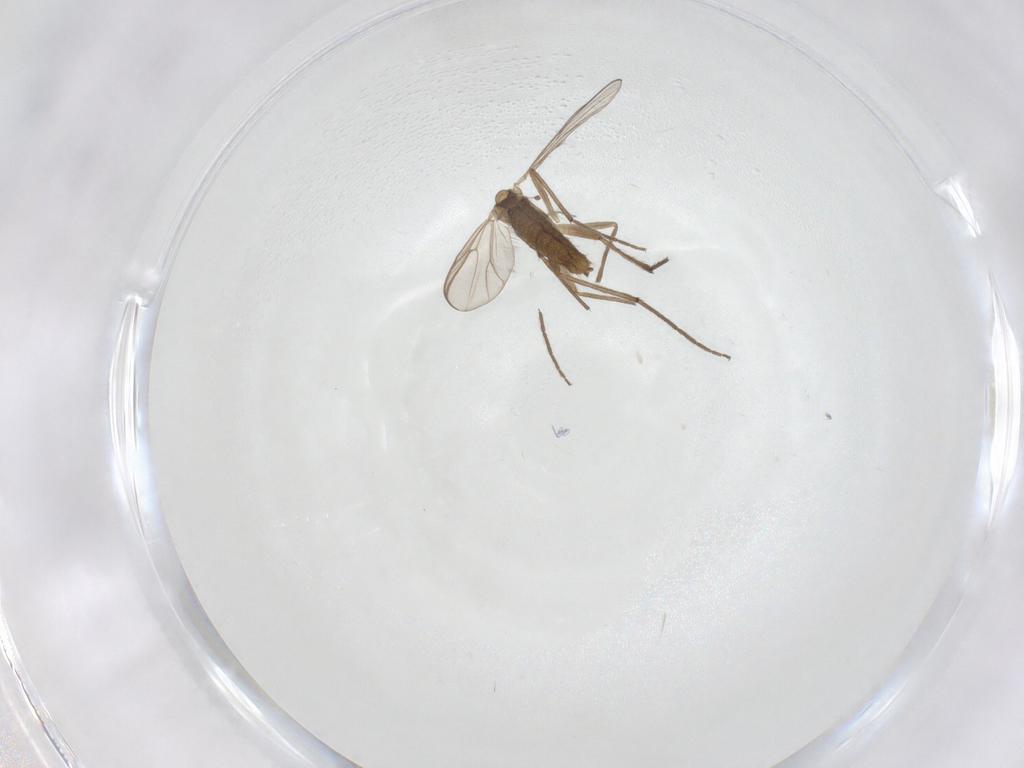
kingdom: Animalia
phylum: Arthropoda
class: Insecta
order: Diptera
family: Chironomidae
